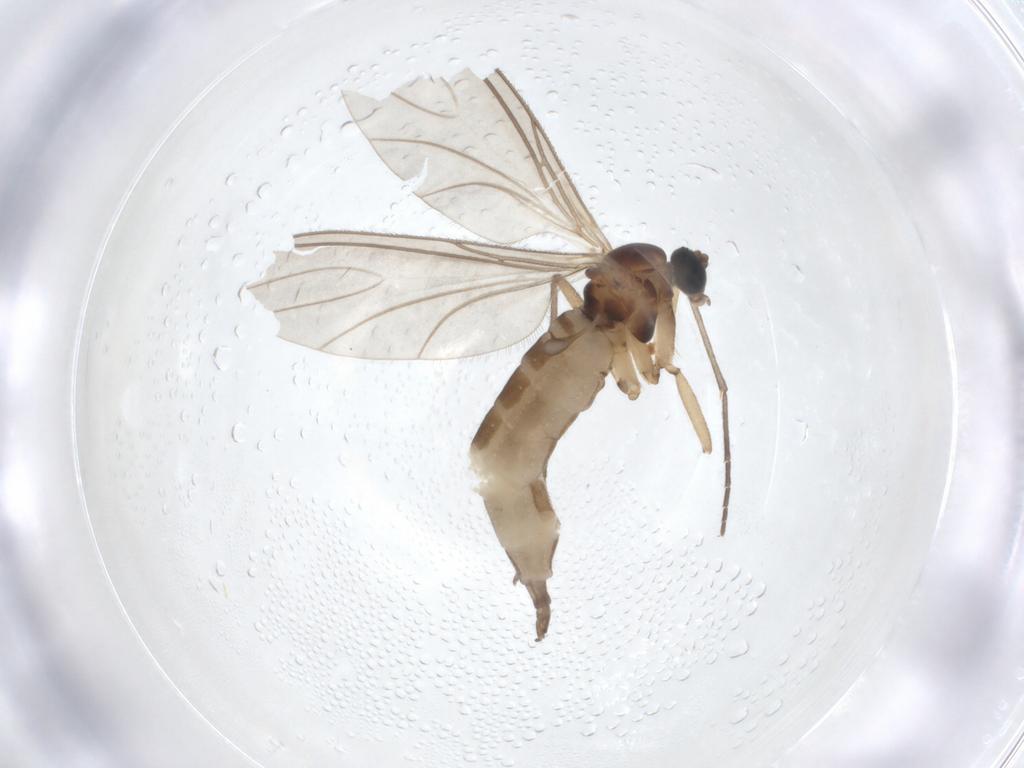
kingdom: Animalia
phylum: Arthropoda
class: Insecta
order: Diptera
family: Sciaridae
